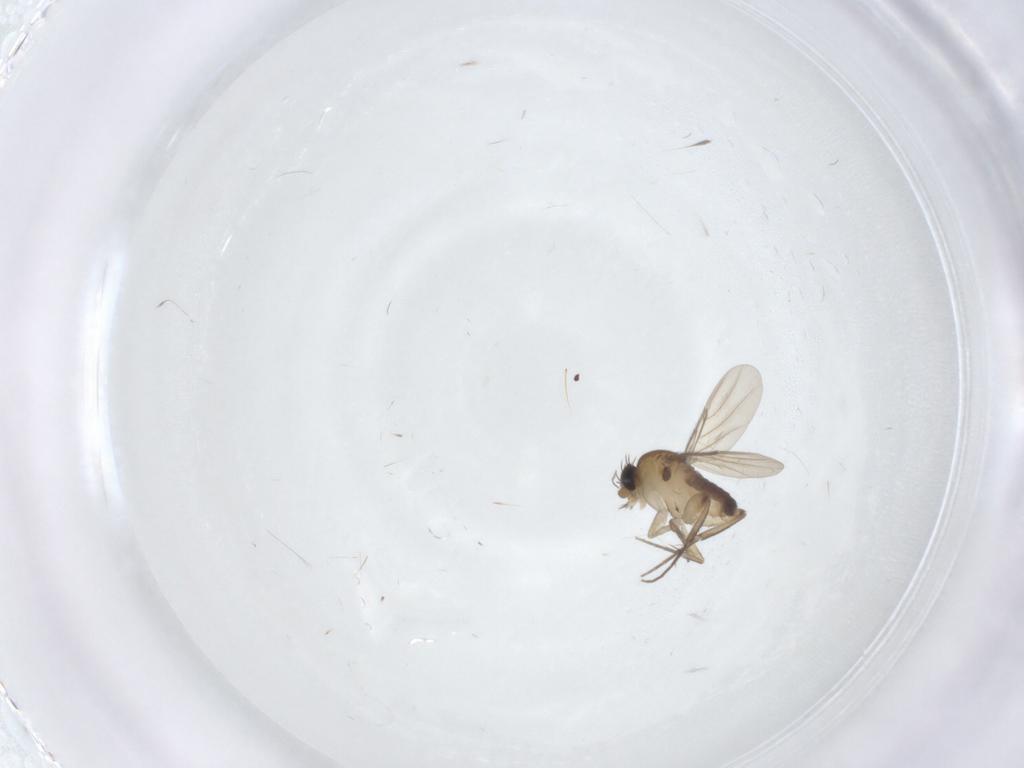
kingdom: Animalia
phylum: Arthropoda
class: Insecta
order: Diptera
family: Phoridae
